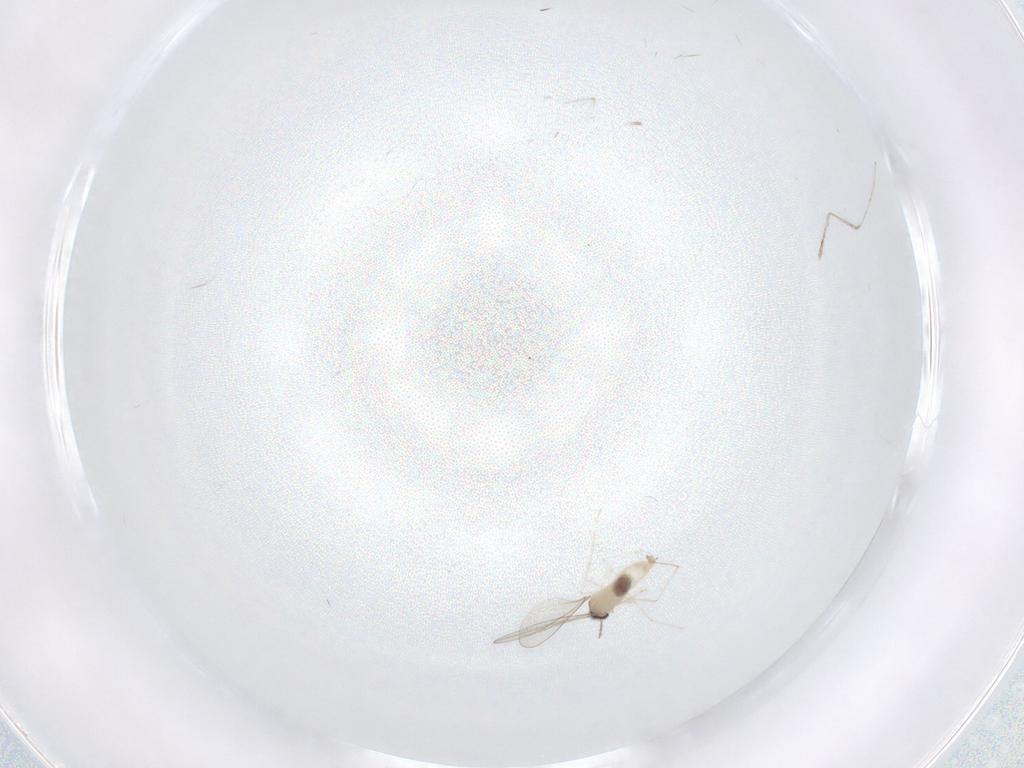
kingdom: Animalia
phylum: Arthropoda
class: Insecta
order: Diptera
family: Cecidomyiidae
